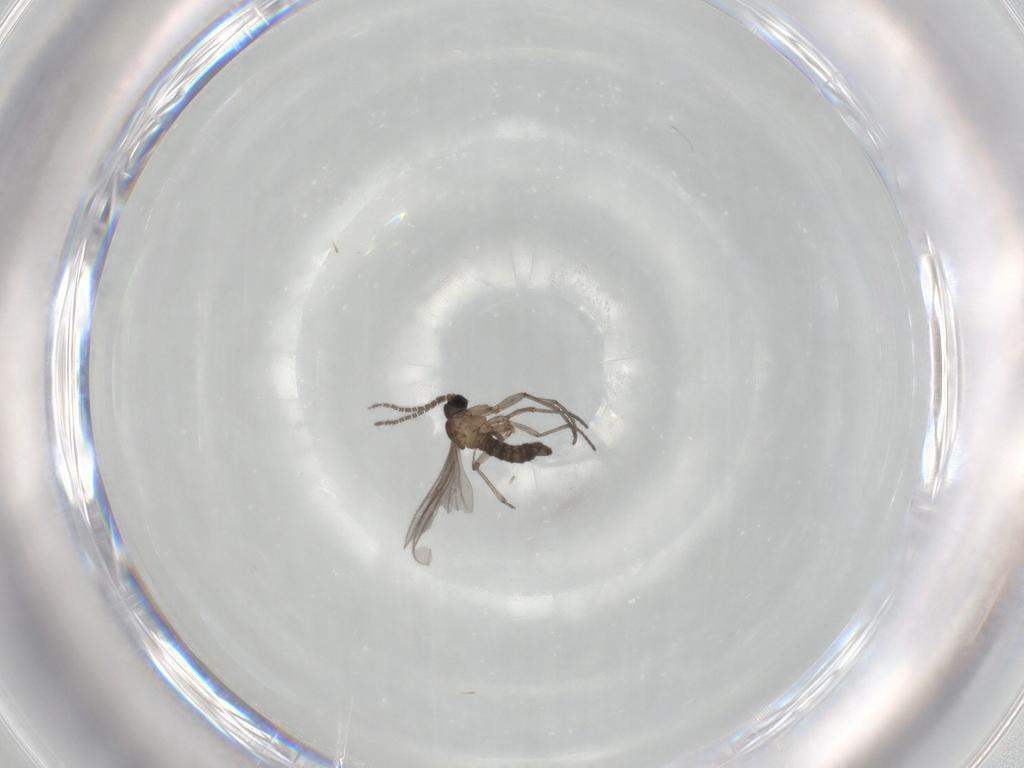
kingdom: Animalia
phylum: Arthropoda
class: Insecta
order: Diptera
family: Sciaridae
